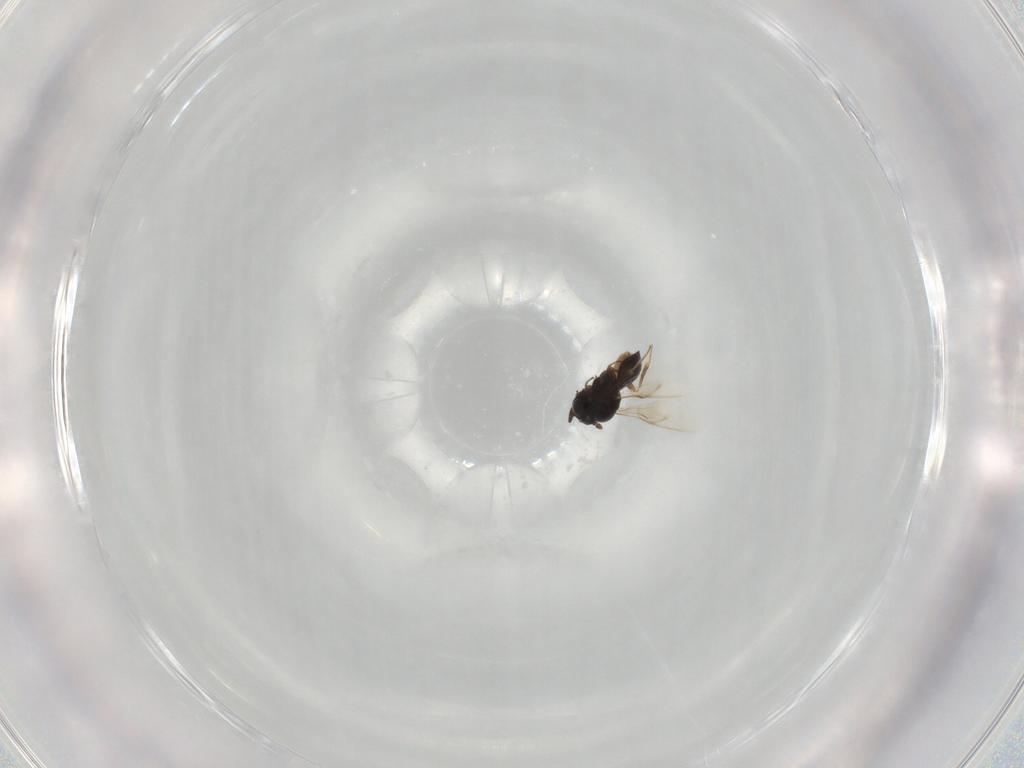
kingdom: Animalia
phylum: Arthropoda
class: Insecta
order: Hymenoptera
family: Scelionidae
